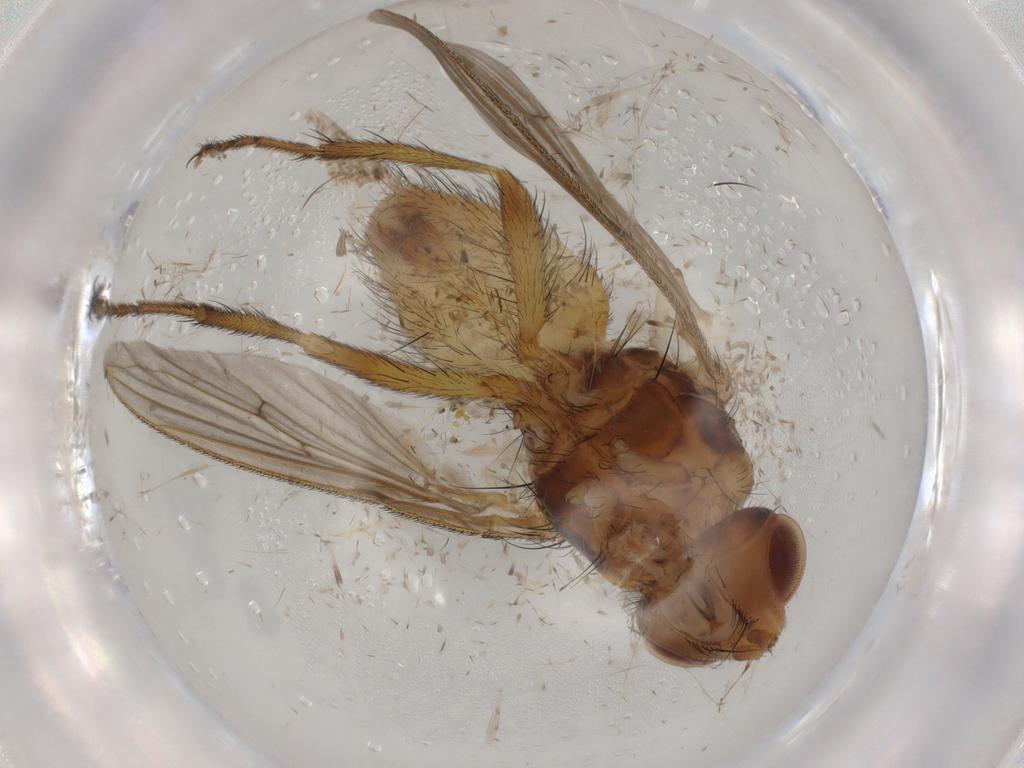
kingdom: Animalia
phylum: Arthropoda
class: Insecta
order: Diptera
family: Cecidomyiidae
